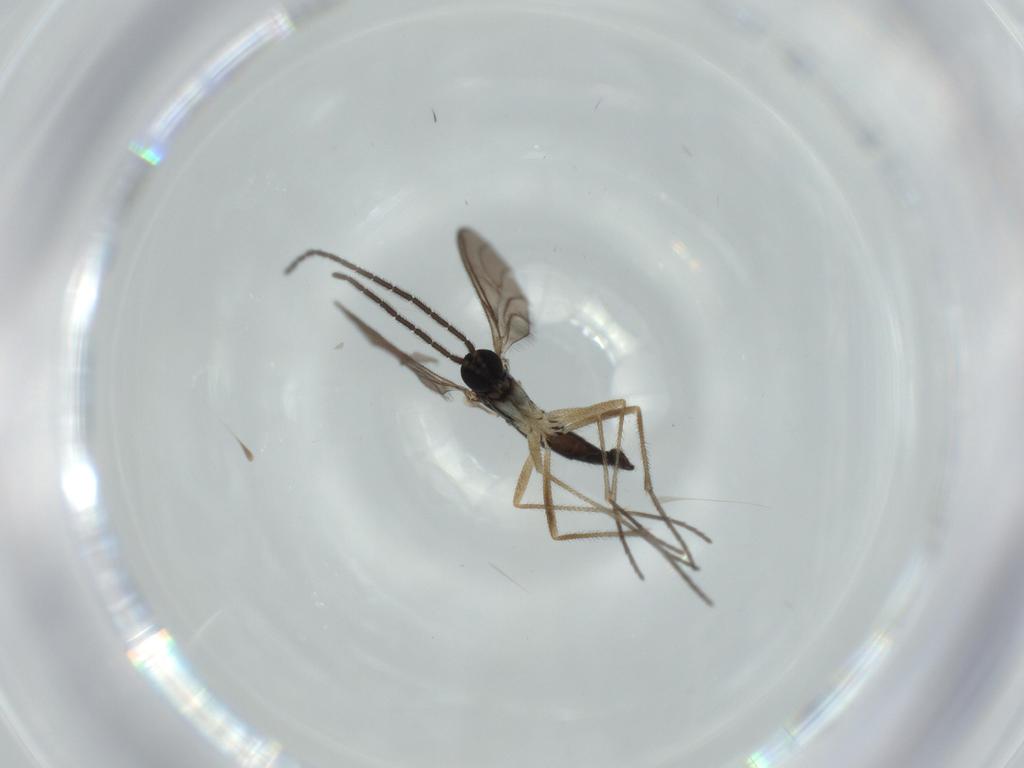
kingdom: Animalia
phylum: Arthropoda
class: Insecta
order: Diptera
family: Sciaridae
